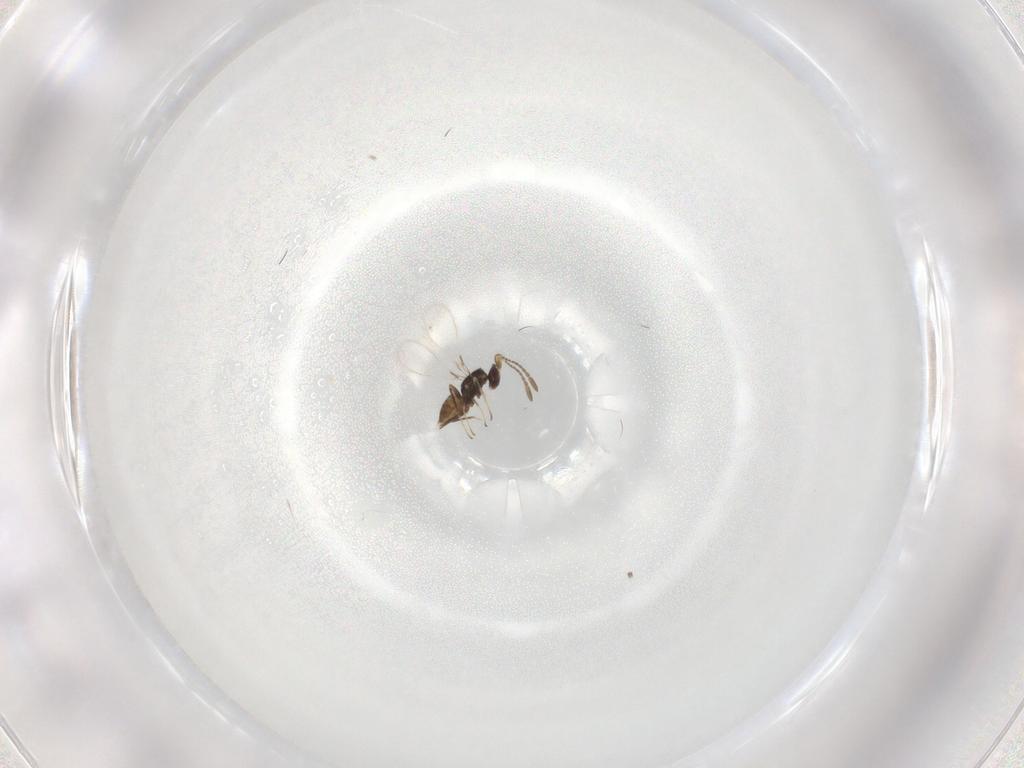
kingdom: Animalia
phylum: Arthropoda
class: Insecta
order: Hymenoptera
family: Mymaridae
